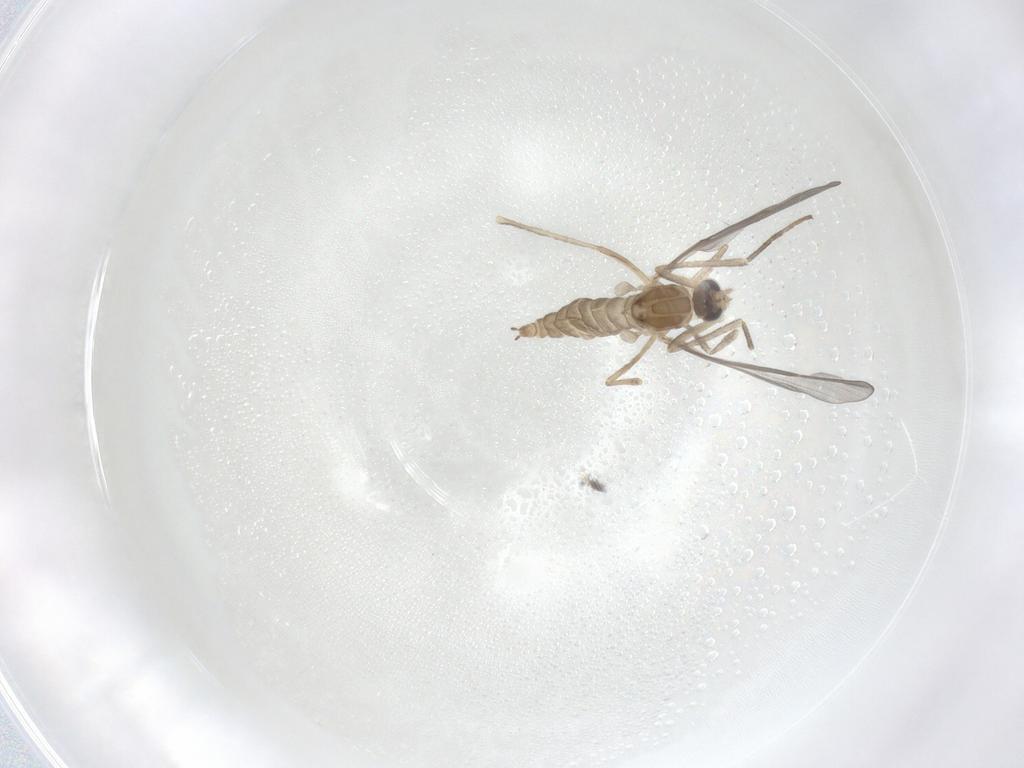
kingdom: Animalia
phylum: Arthropoda
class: Insecta
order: Diptera
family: Cecidomyiidae
